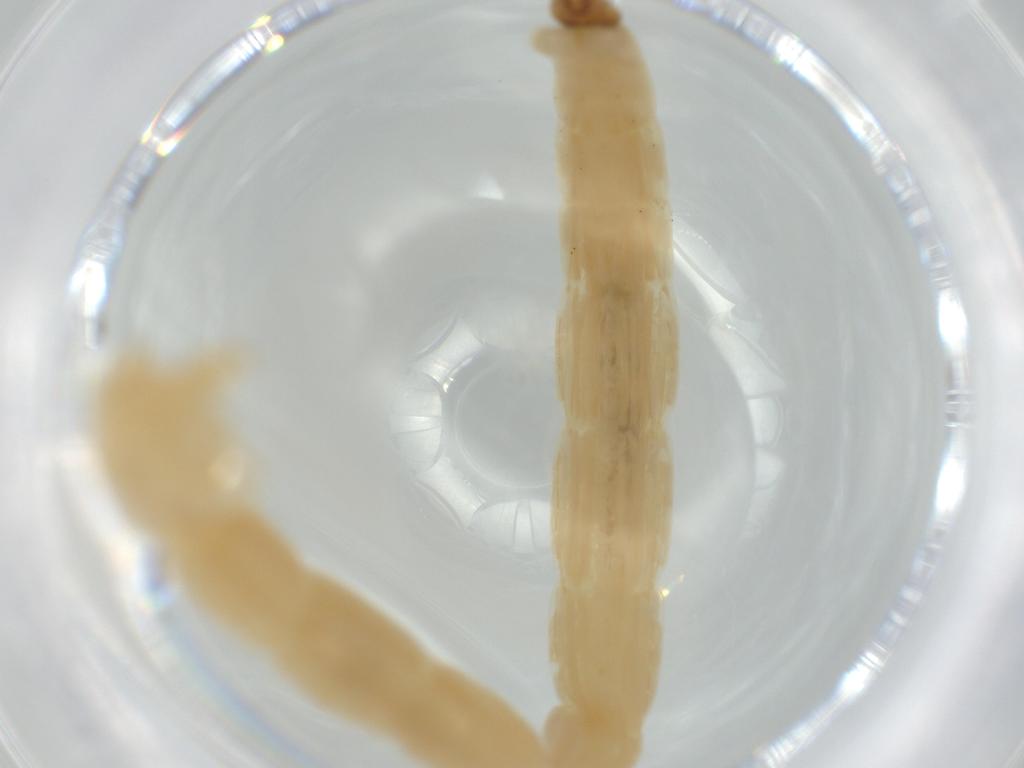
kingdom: Animalia
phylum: Arthropoda
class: Insecta
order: Diptera
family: Chironomidae
